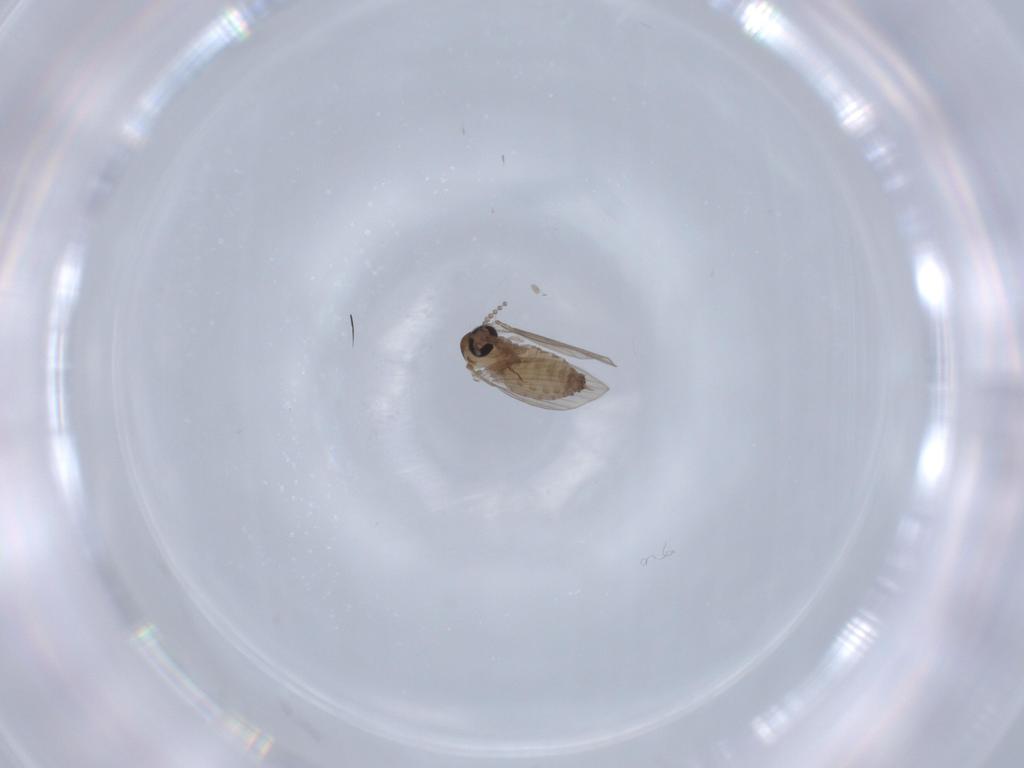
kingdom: Animalia
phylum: Arthropoda
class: Insecta
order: Diptera
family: Psychodidae
